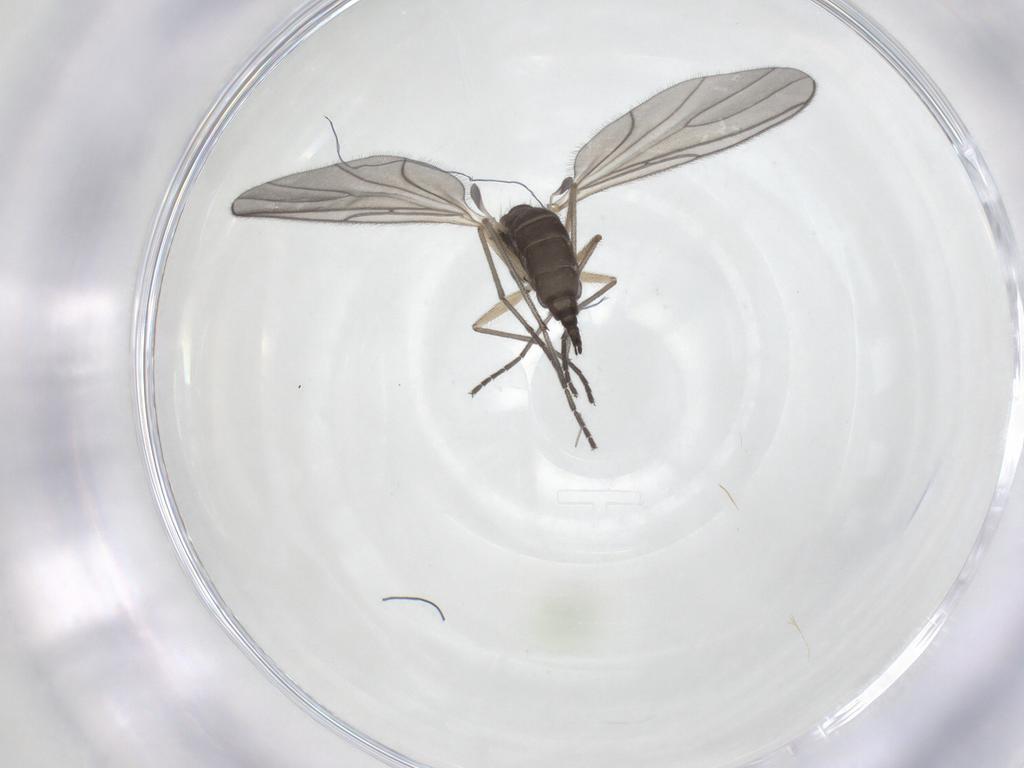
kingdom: Animalia
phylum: Arthropoda
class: Insecta
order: Diptera
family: Sciaridae
